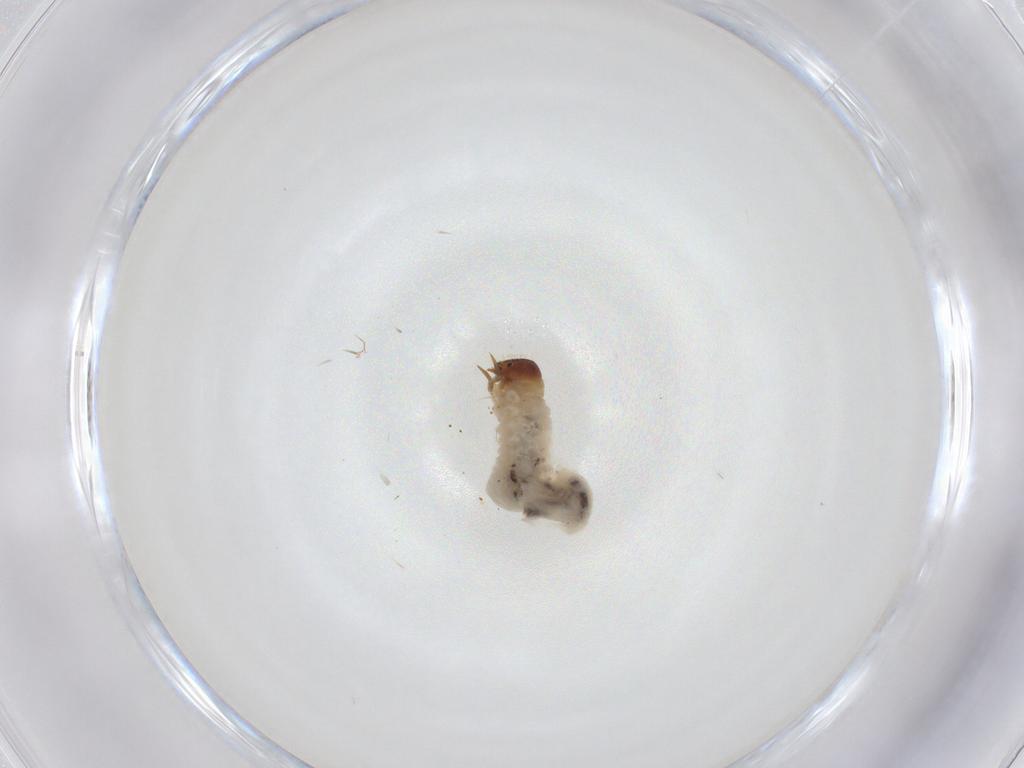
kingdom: Animalia
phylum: Arthropoda
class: Insecta
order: Coleoptera
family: Chrysomelidae
